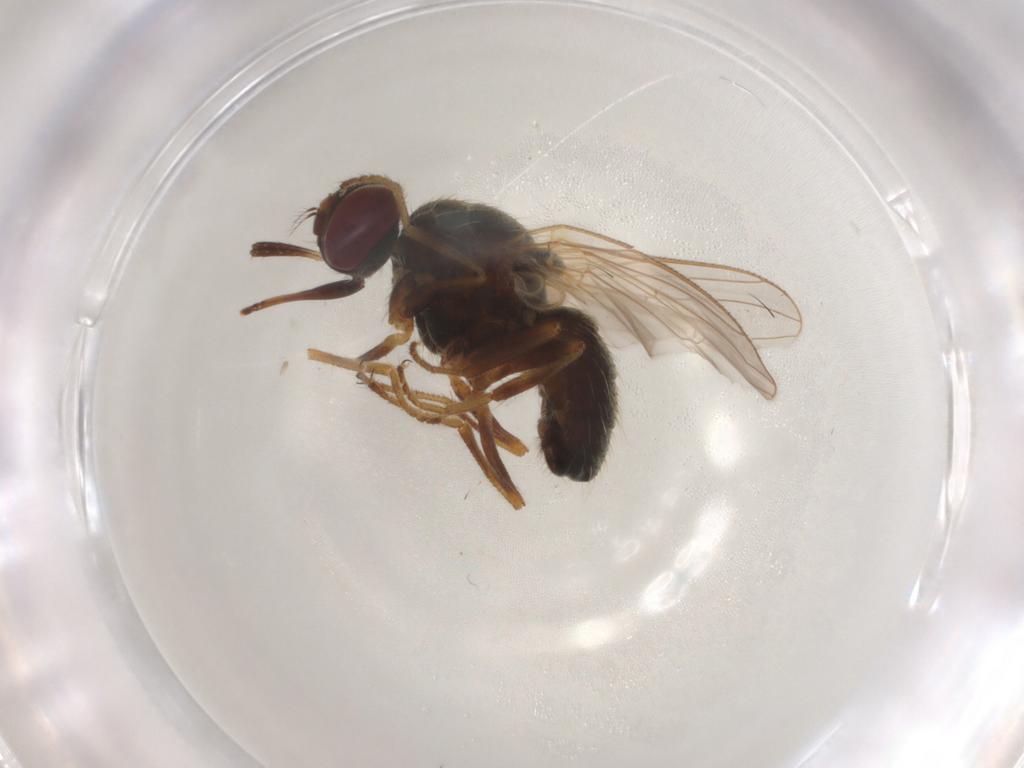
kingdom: Animalia
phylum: Arthropoda
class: Insecta
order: Diptera
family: Muscidae
